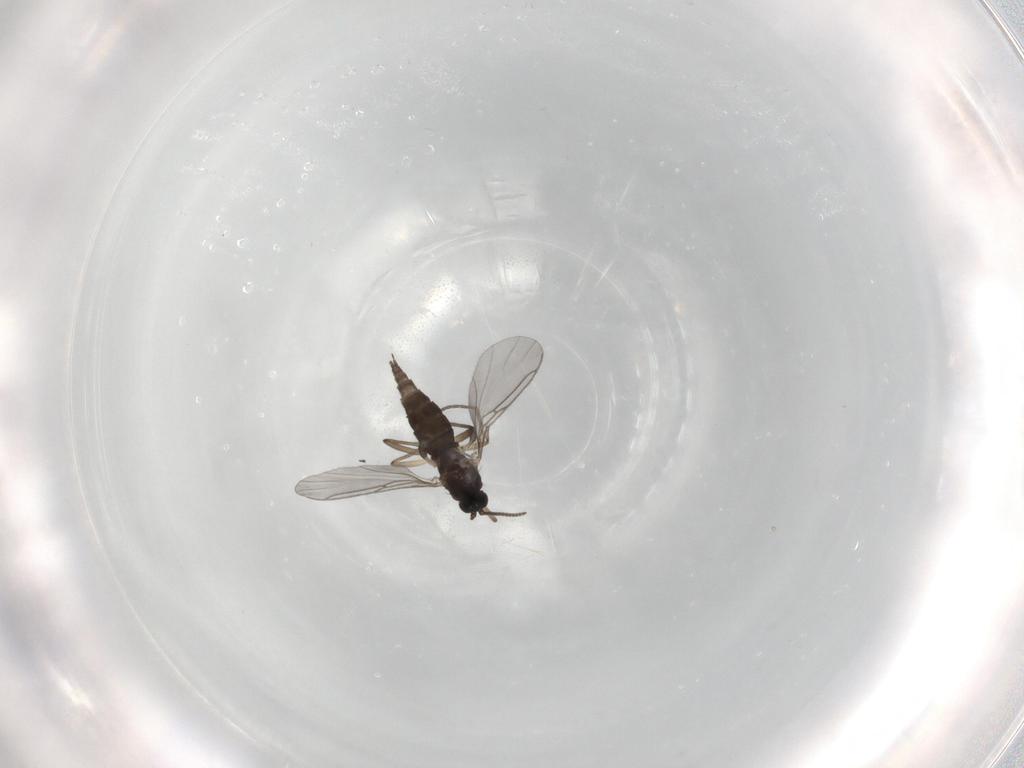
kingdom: Animalia
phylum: Arthropoda
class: Insecta
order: Diptera
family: Sciaridae
